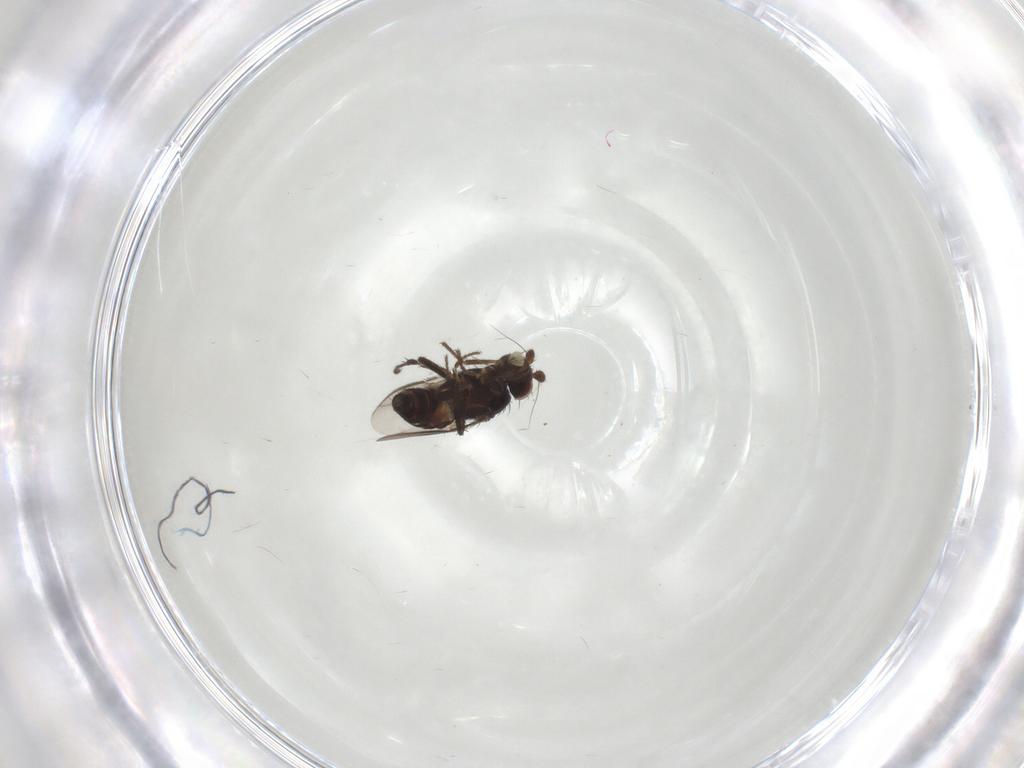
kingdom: Animalia
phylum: Arthropoda
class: Insecta
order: Diptera
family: Sphaeroceridae
